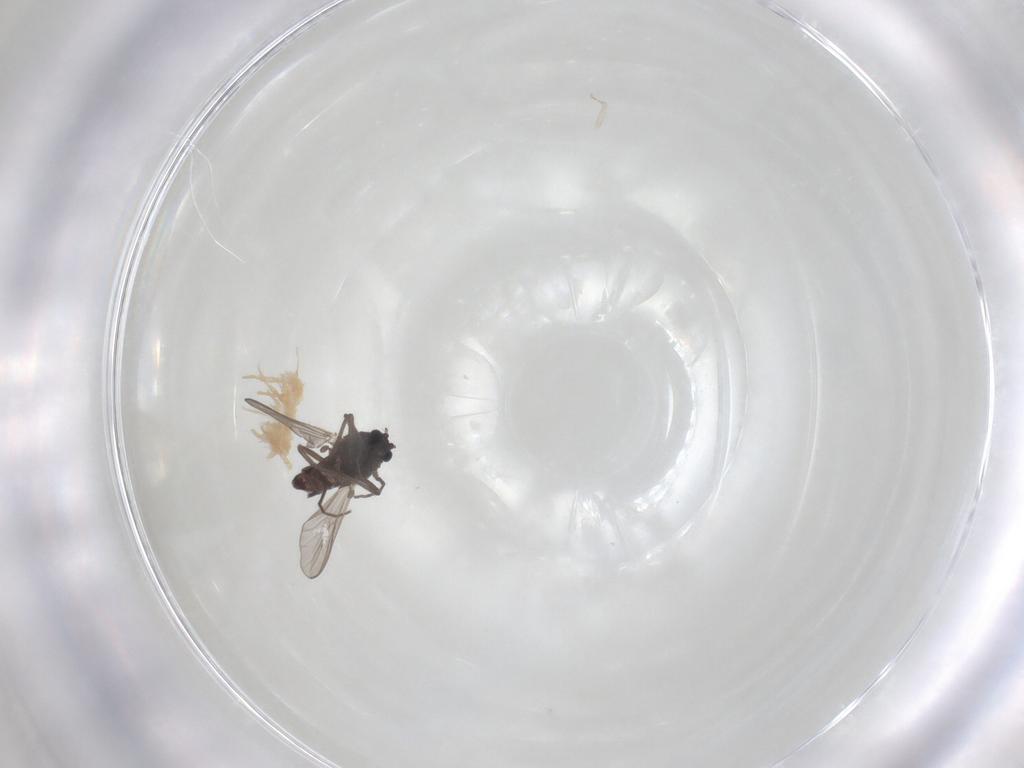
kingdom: Animalia
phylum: Arthropoda
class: Insecta
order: Diptera
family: Chironomidae
